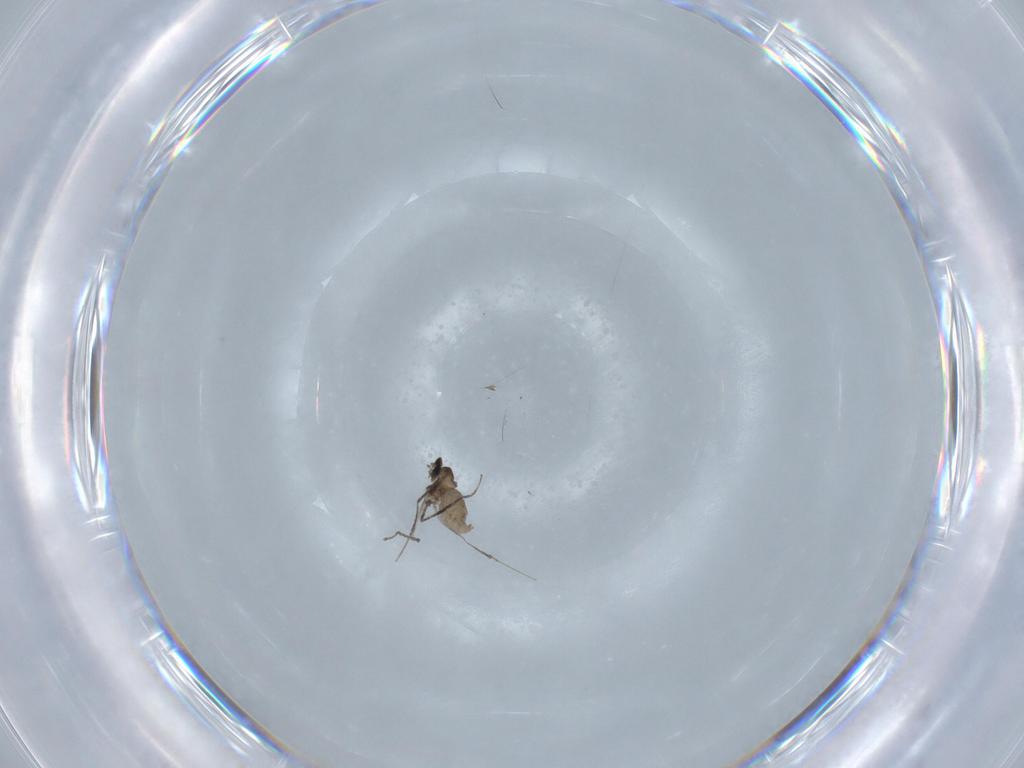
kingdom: Animalia
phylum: Arthropoda
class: Insecta
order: Diptera
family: Cecidomyiidae
